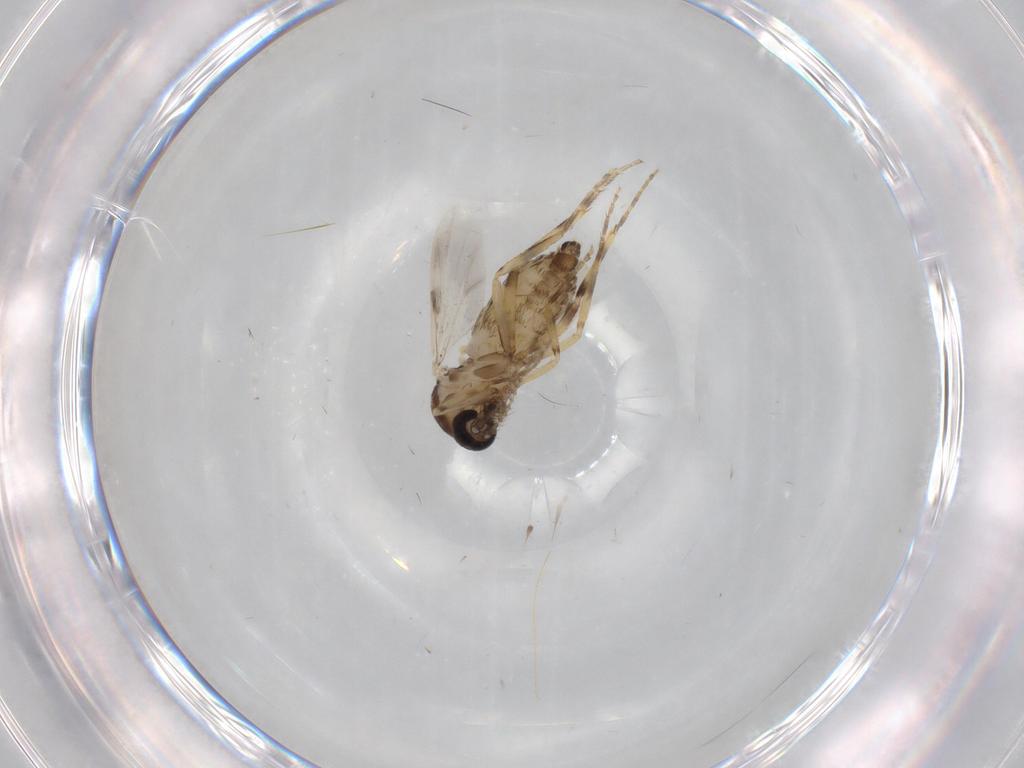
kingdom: Animalia
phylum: Arthropoda
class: Insecta
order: Diptera
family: Ceratopogonidae
